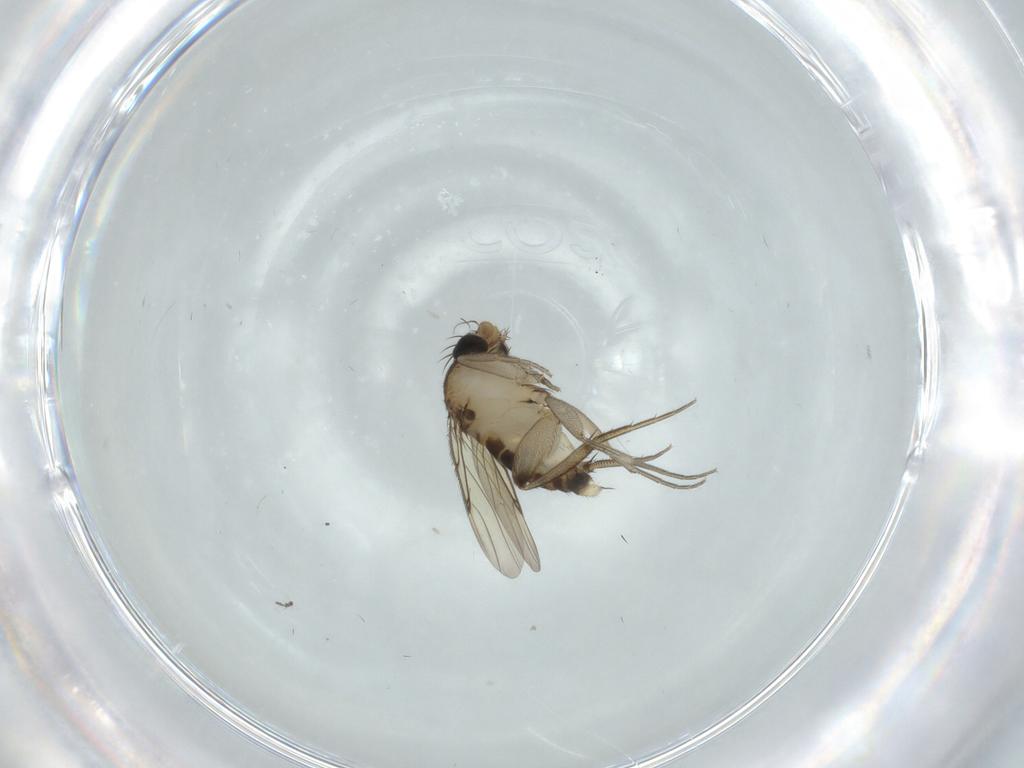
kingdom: Animalia
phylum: Arthropoda
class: Insecta
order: Diptera
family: Phoridae
